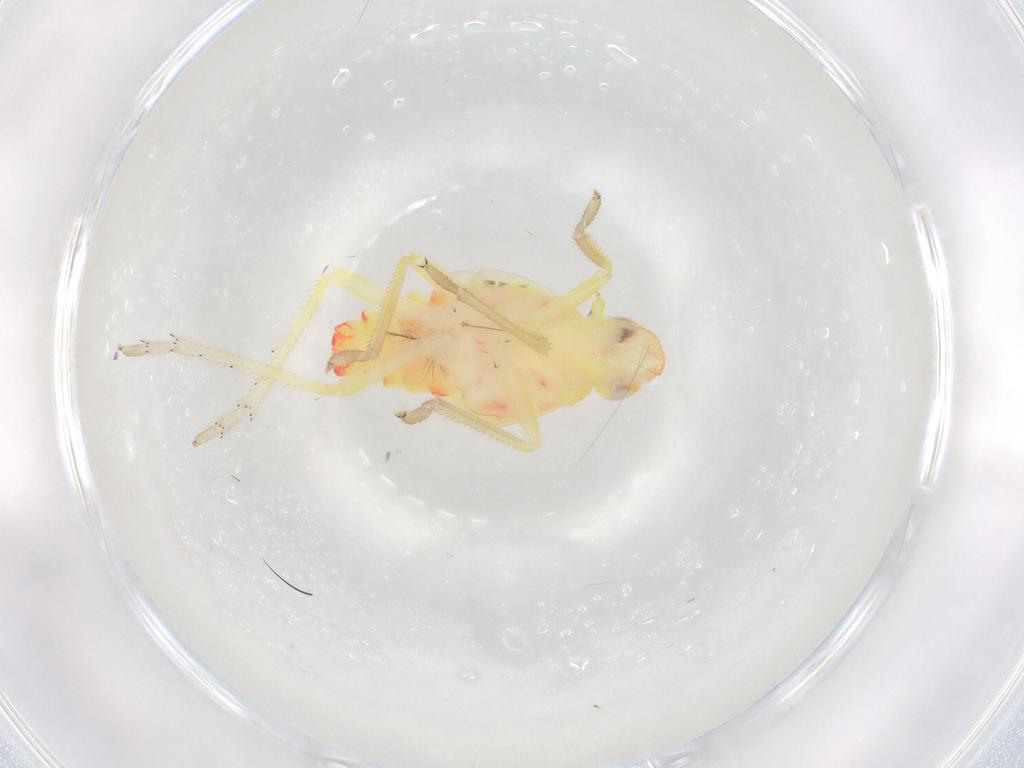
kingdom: Animalia
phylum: Arthropoda
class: Insecta
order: Hemiptera
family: Tropiduchidae
